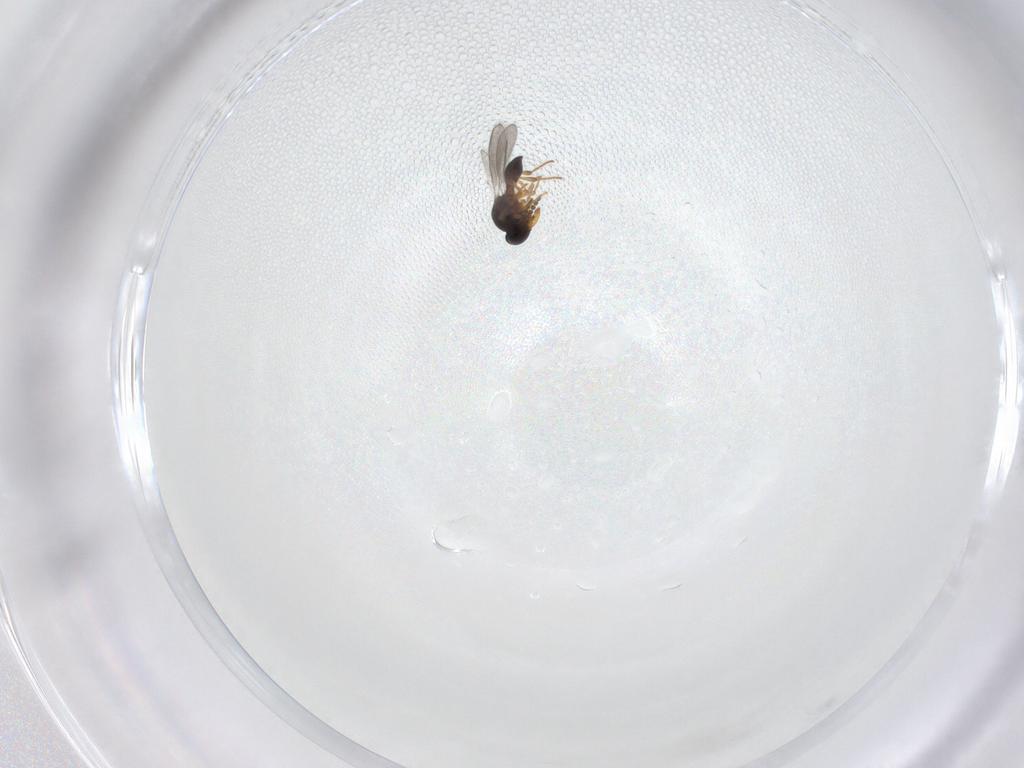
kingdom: Animalia
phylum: Arthropoda
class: Insecta
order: Hymenoptera
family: Platygastridae
